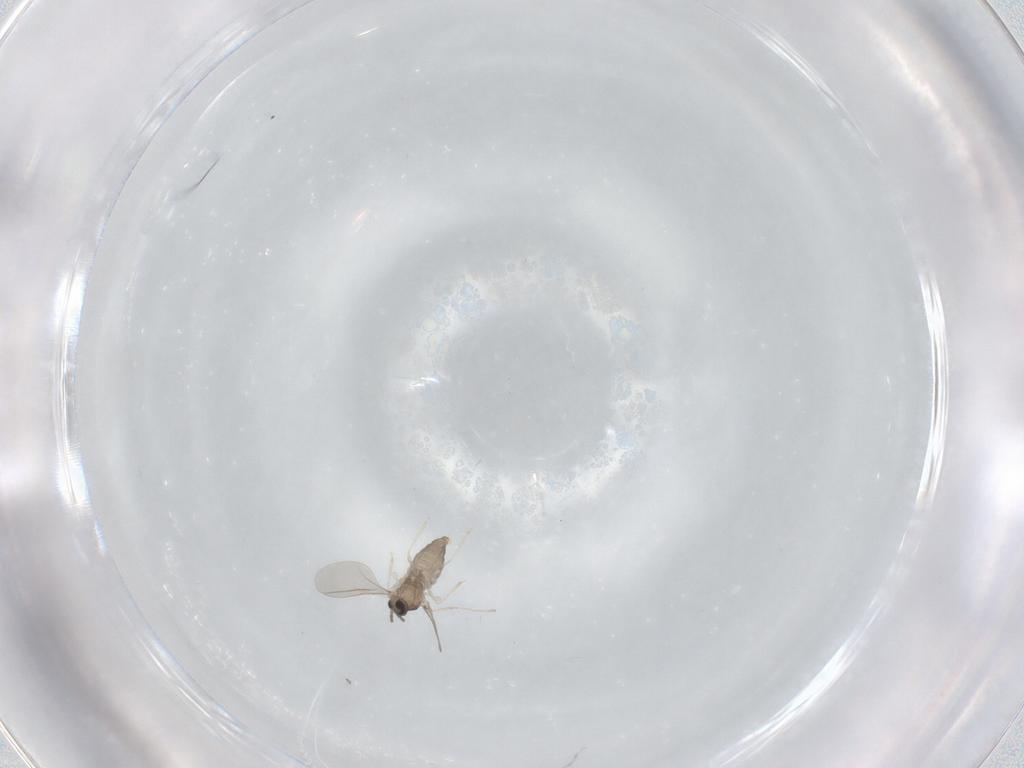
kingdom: Animalia
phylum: Arthropoda
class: Insecta
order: Diptera
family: Cecidomyiidae
